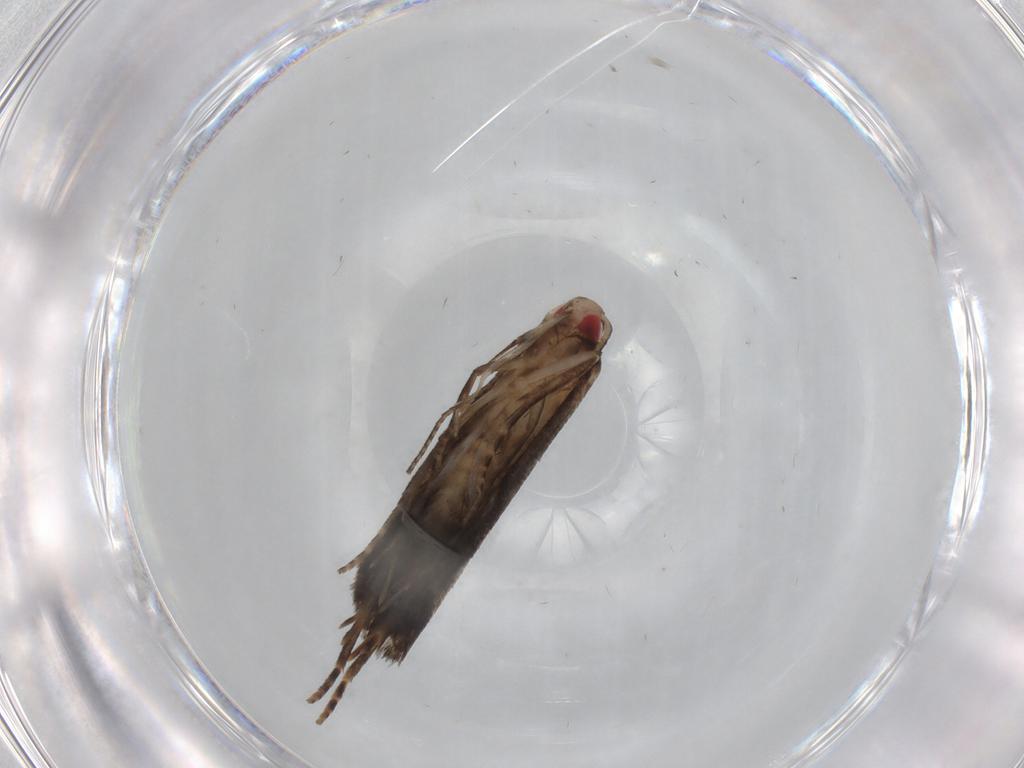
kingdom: Animalia
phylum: Arthropoda
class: Insecta
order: Lepidoptera
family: Gelechiidae
